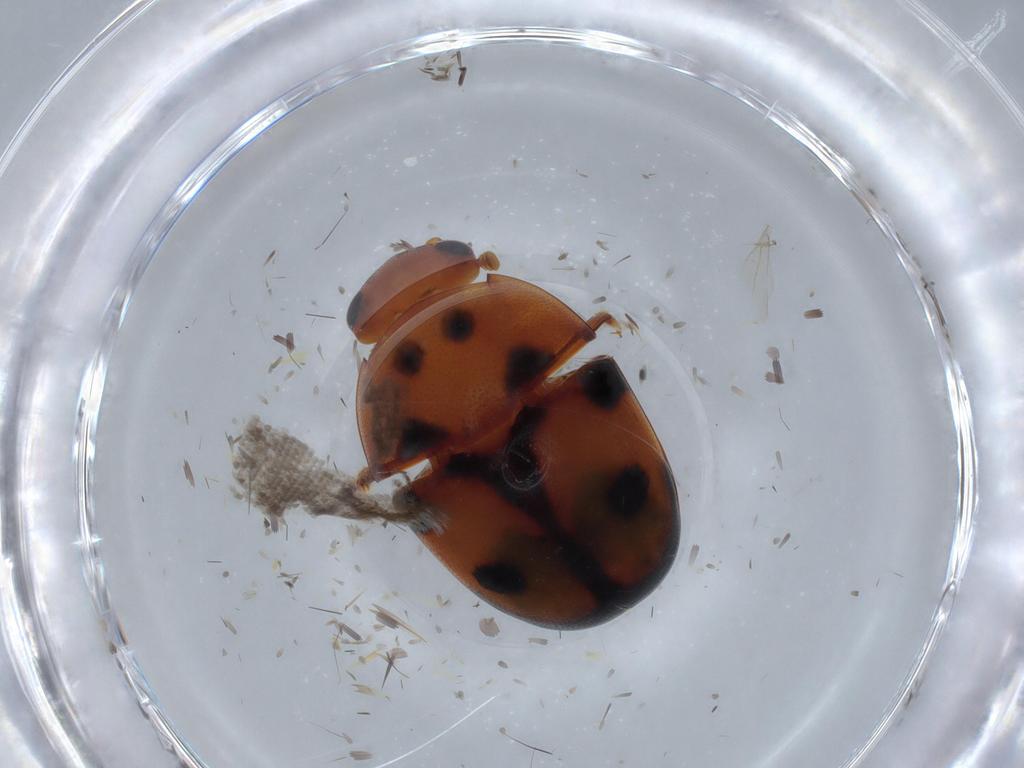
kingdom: Animalia
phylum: Arthropoda
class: Insecta
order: Coleoptera
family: Nitidulidae
